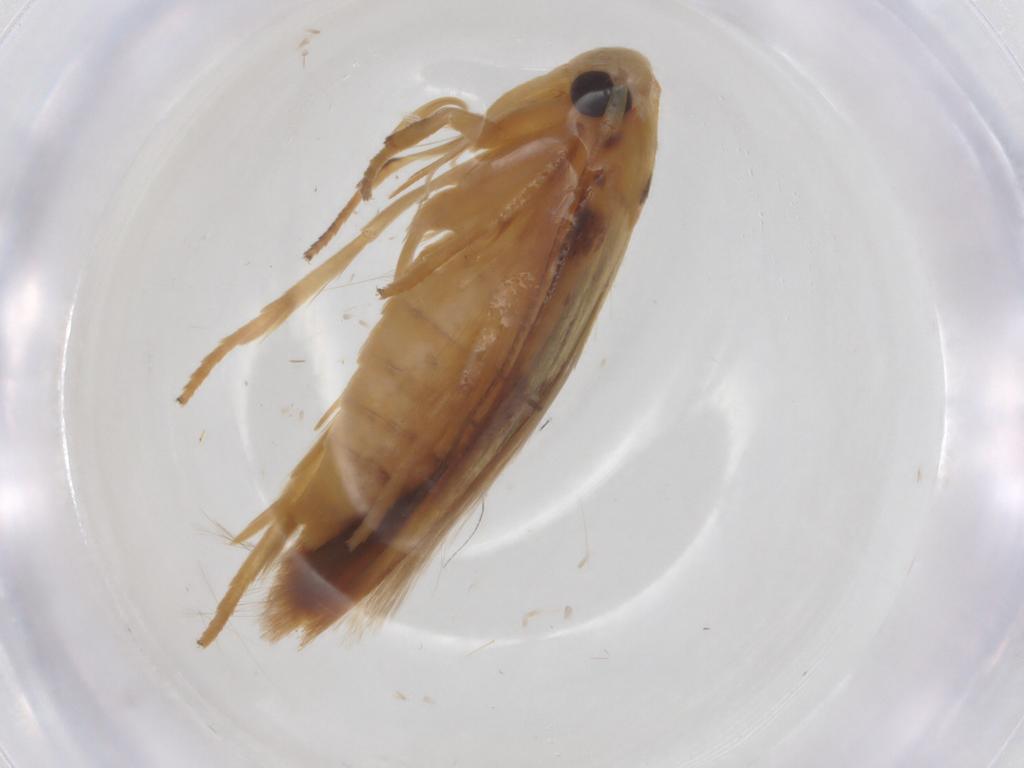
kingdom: Animalia
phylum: Arthropoda
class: Insecta
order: Lepidoptera
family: Stathmopodidae
